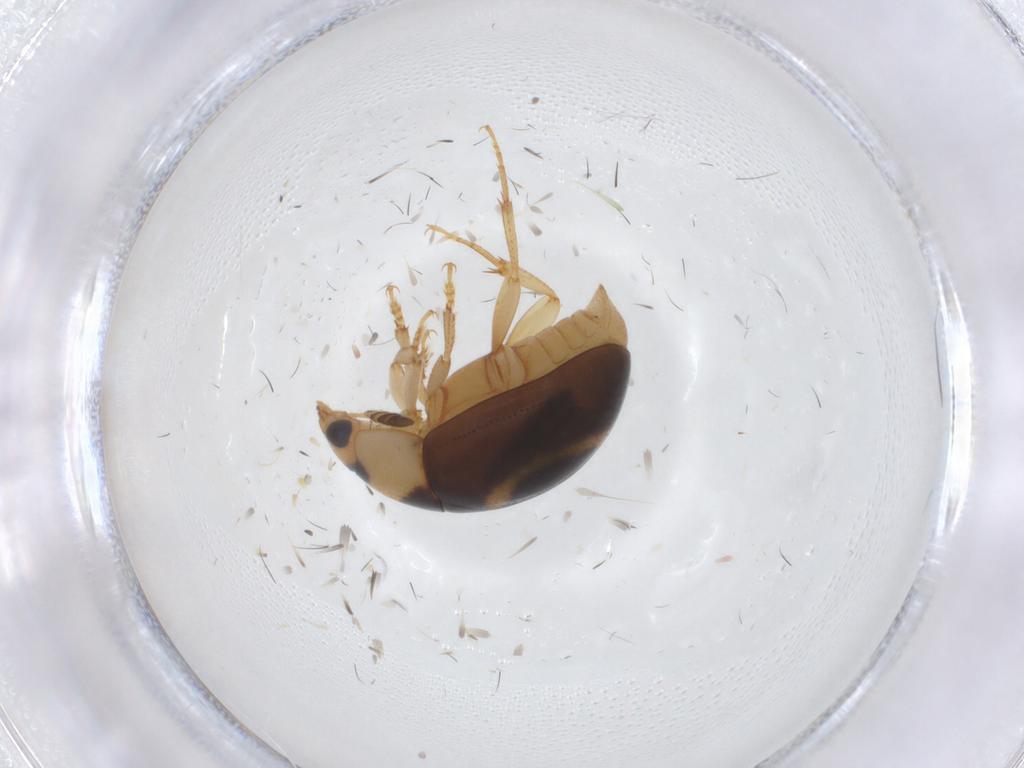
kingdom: Animalia
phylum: Arthropoda
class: Insecta
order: Coleoptera
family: Nitidulidae
